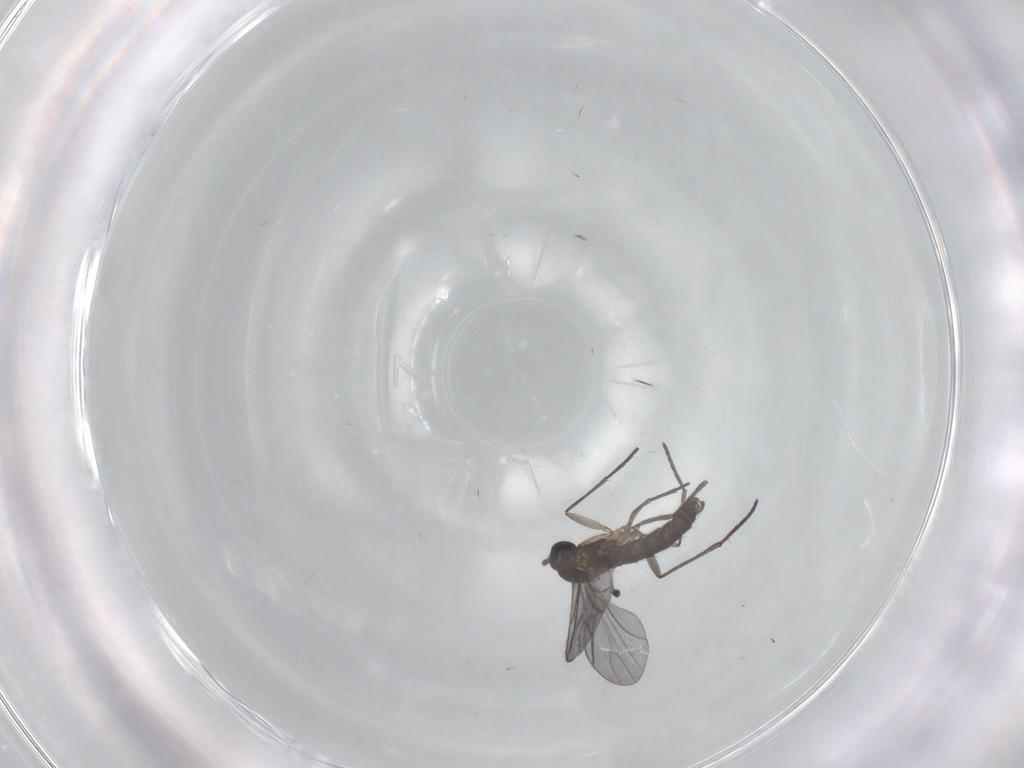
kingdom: Animalia
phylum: Arthropoda
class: Insecta
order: Diptera
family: Sciaridae
